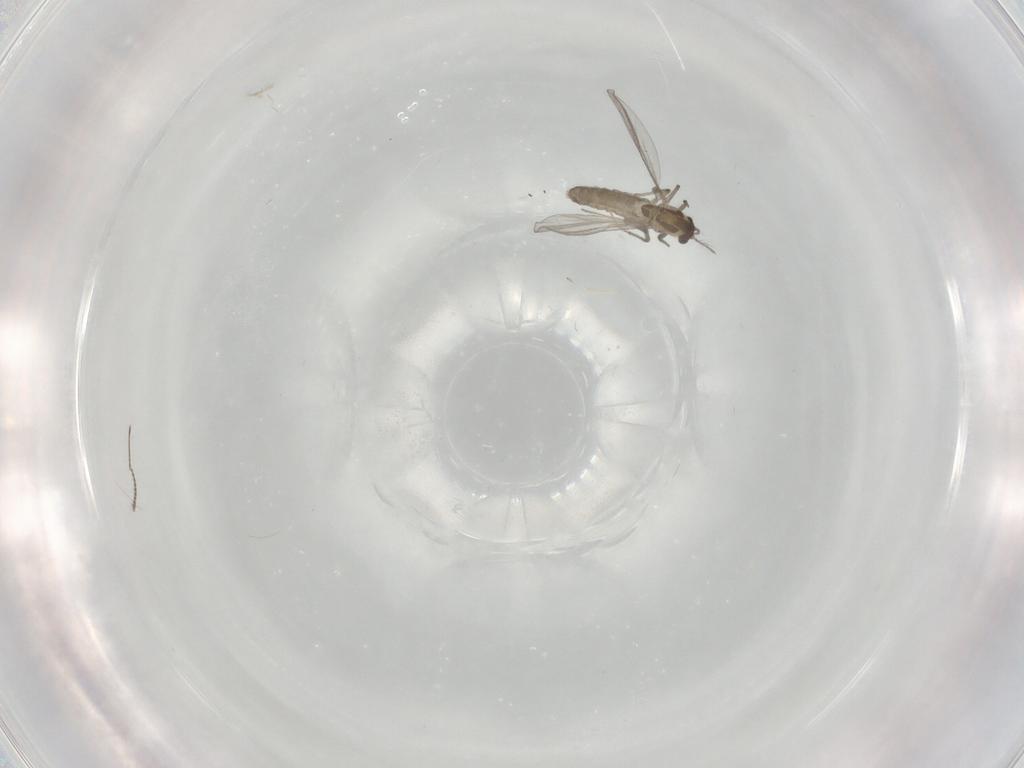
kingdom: Animalia
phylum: Arthropoda
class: Insecta
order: Diptera
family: Chironomidae
